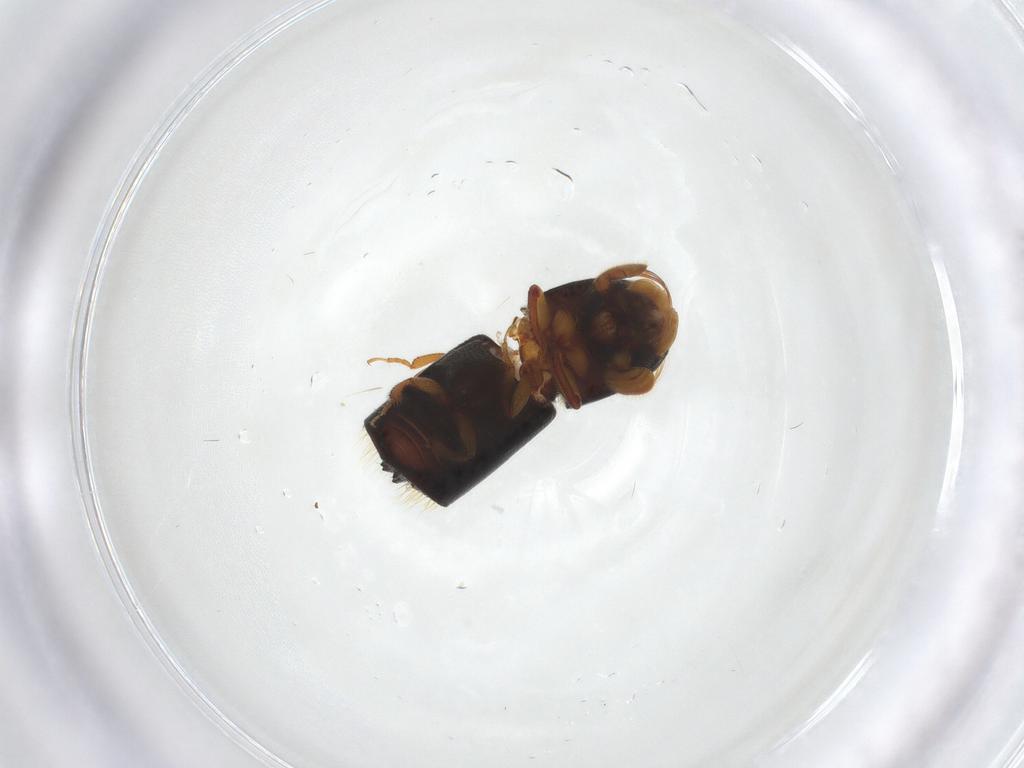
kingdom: Animalia
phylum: Arthropoda
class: Insecta
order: Coleoptera
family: Curculionidae
